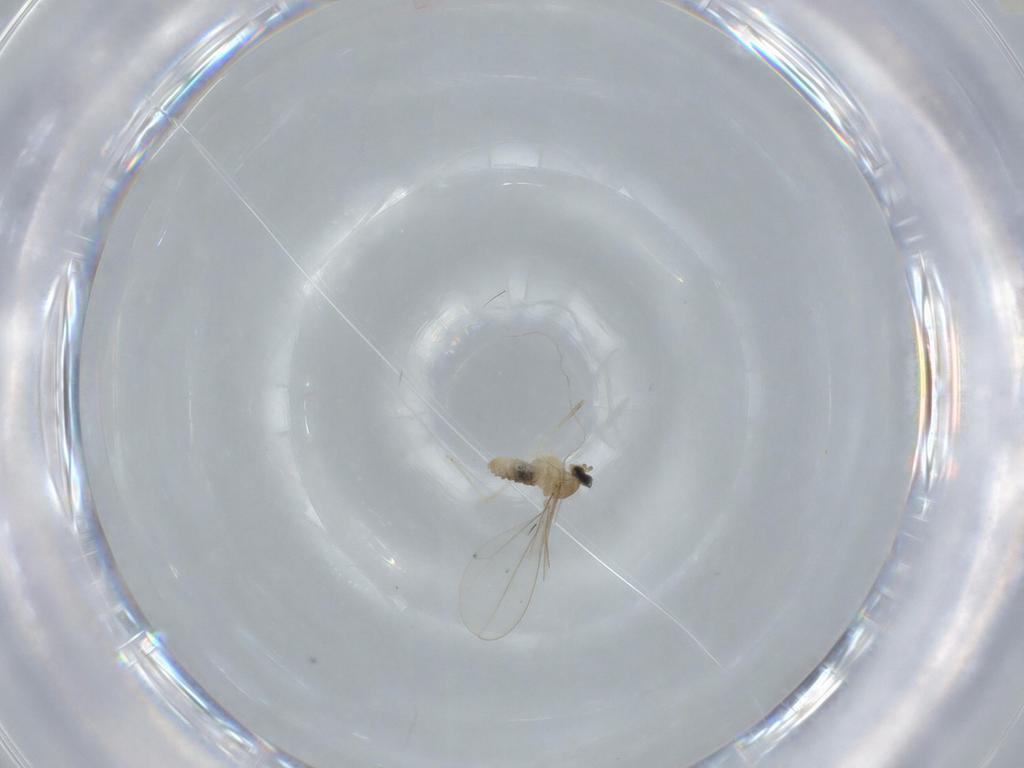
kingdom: Animalia
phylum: Arthropoda
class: Insecta
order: Diptera
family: Cecidomyiidae
